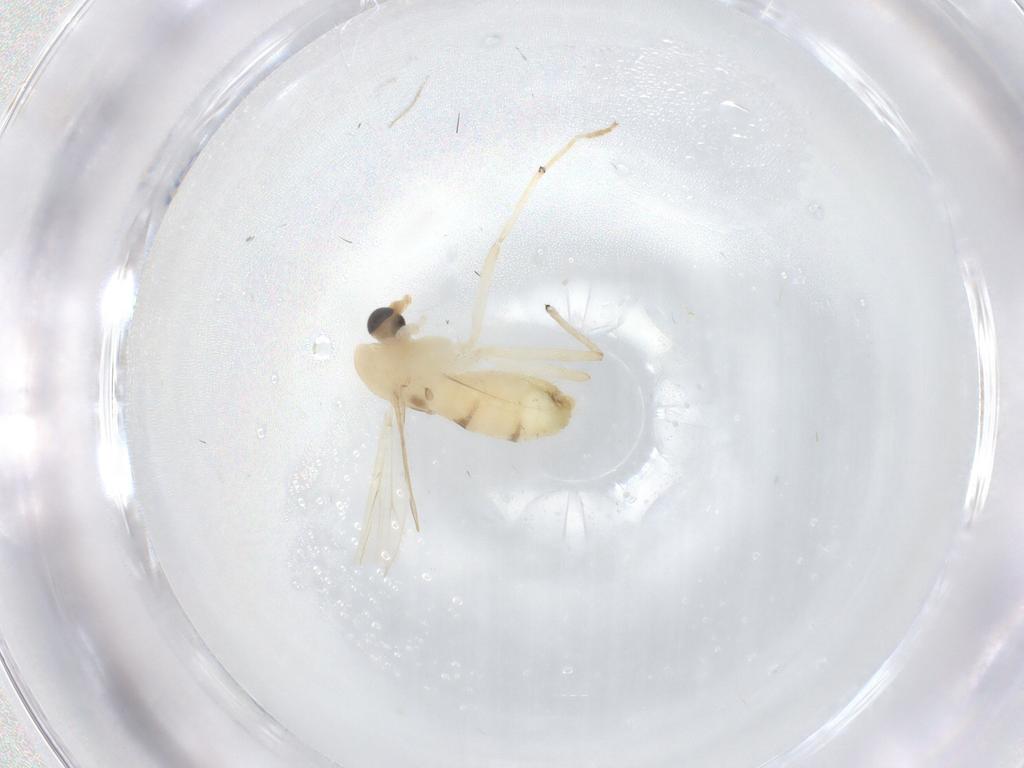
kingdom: Animalia
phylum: Arthropoda
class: Insecta
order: Diptera
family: Chironomidae
